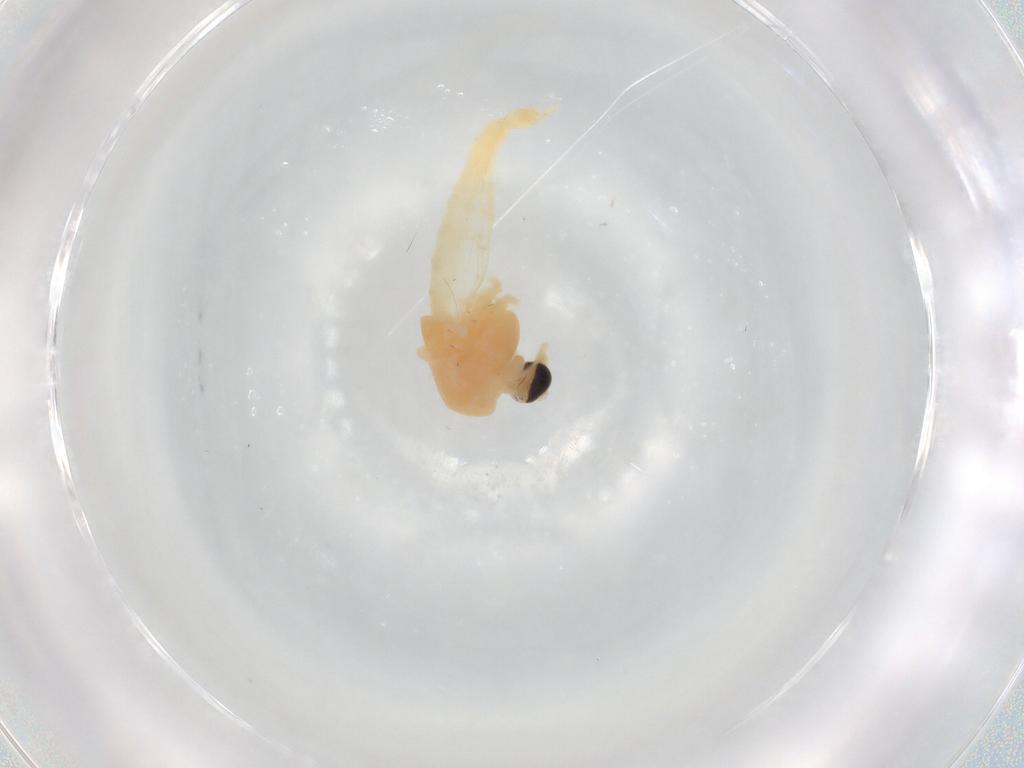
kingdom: Animalia
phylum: Arthropoda
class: Insecta
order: Diptera
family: Chironomidae
